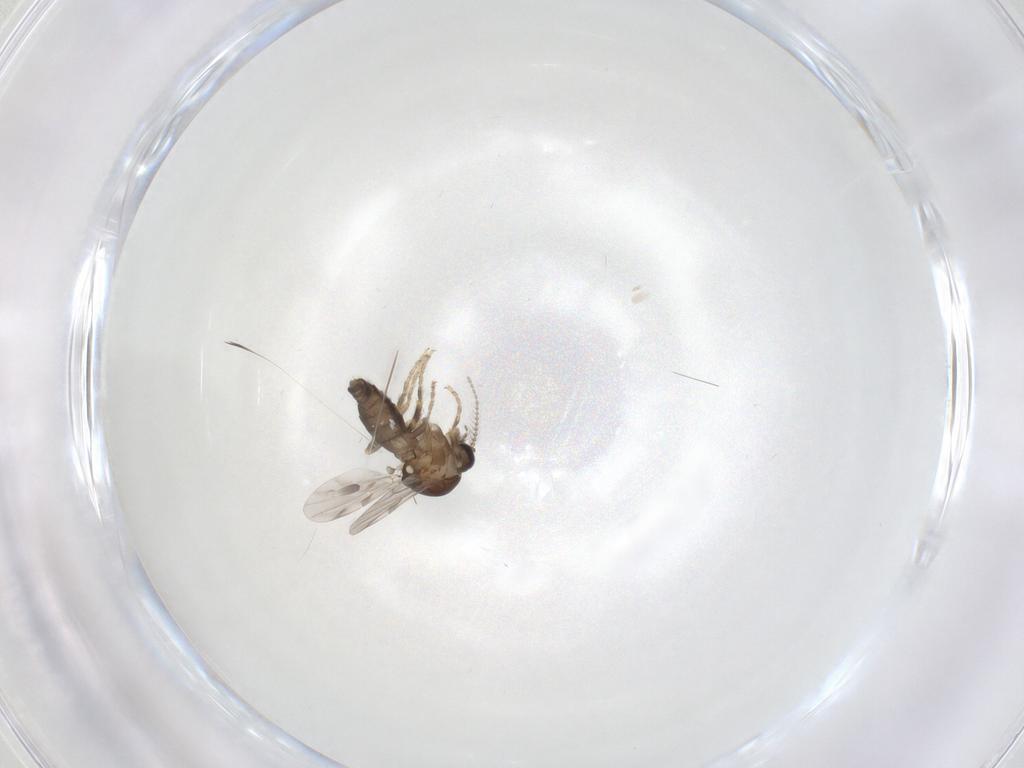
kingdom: Animalia
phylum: Arthropoda
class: Insecta
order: Diptera
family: Ceratopogonidae
